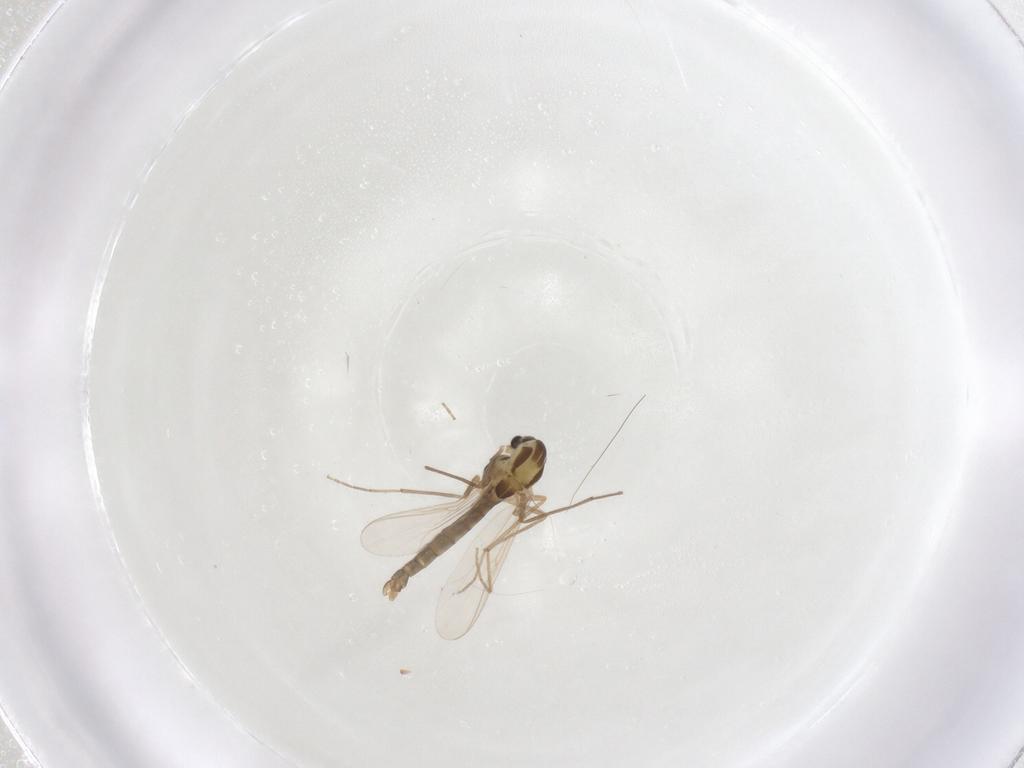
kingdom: Animalia
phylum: Arthropoda
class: Insecta
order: Diptera
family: Chironomidae
